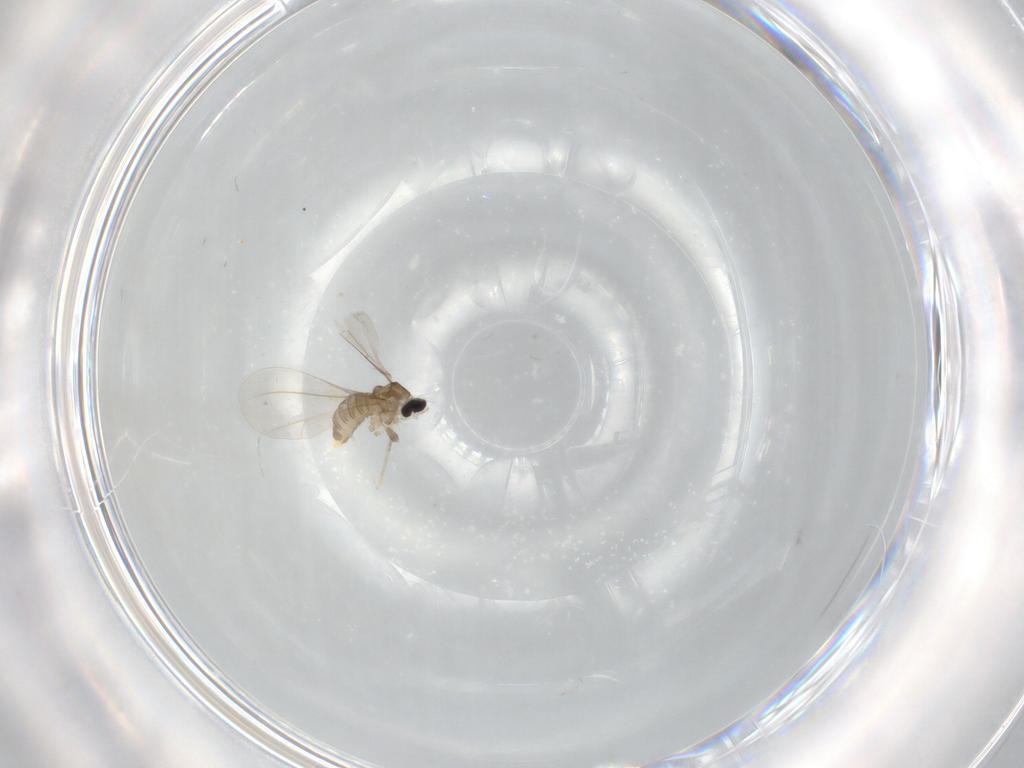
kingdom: Animalia
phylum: Arthropoda
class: Insecta
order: Diptera
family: Cecidomyiidae
